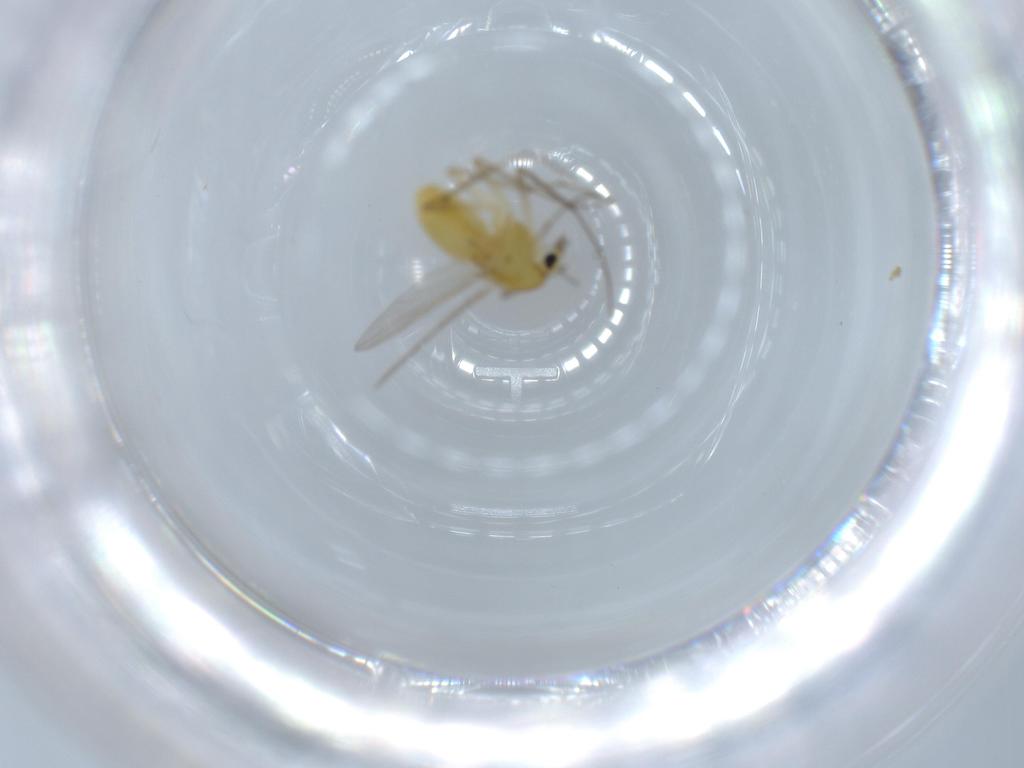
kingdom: Animalia
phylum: Arthropoda
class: Insecta
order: Diptera
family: Chironomidae
